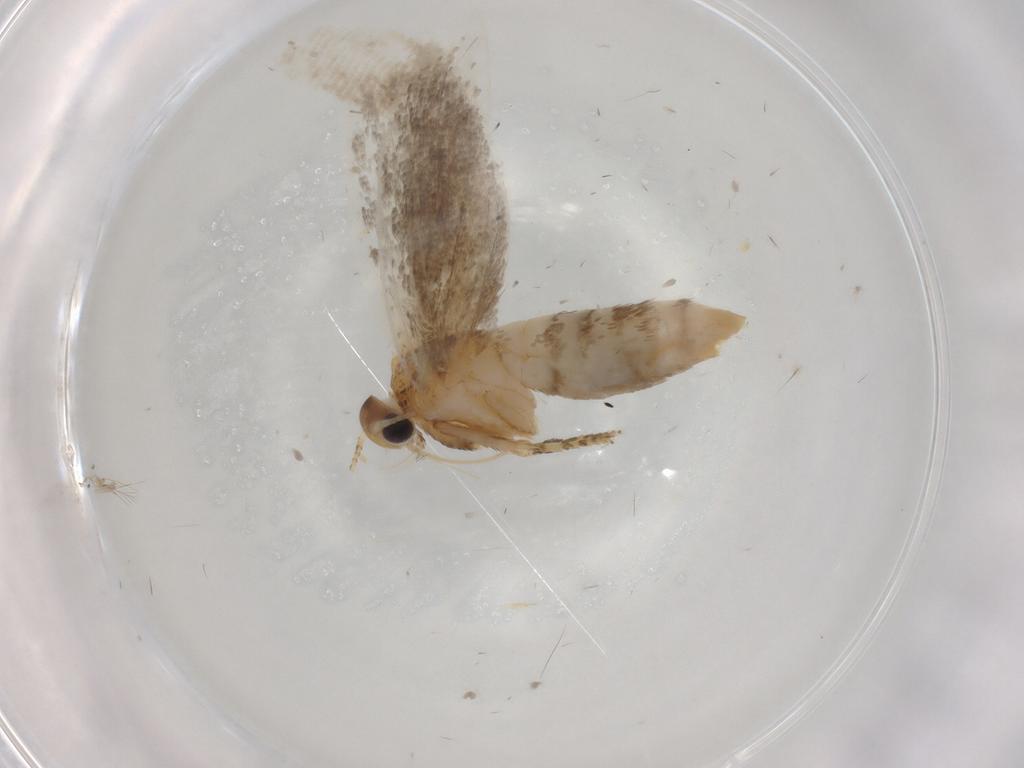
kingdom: Animalia
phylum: Arthropoda
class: Insecta
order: Lepidoptera
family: Oecophoridae
